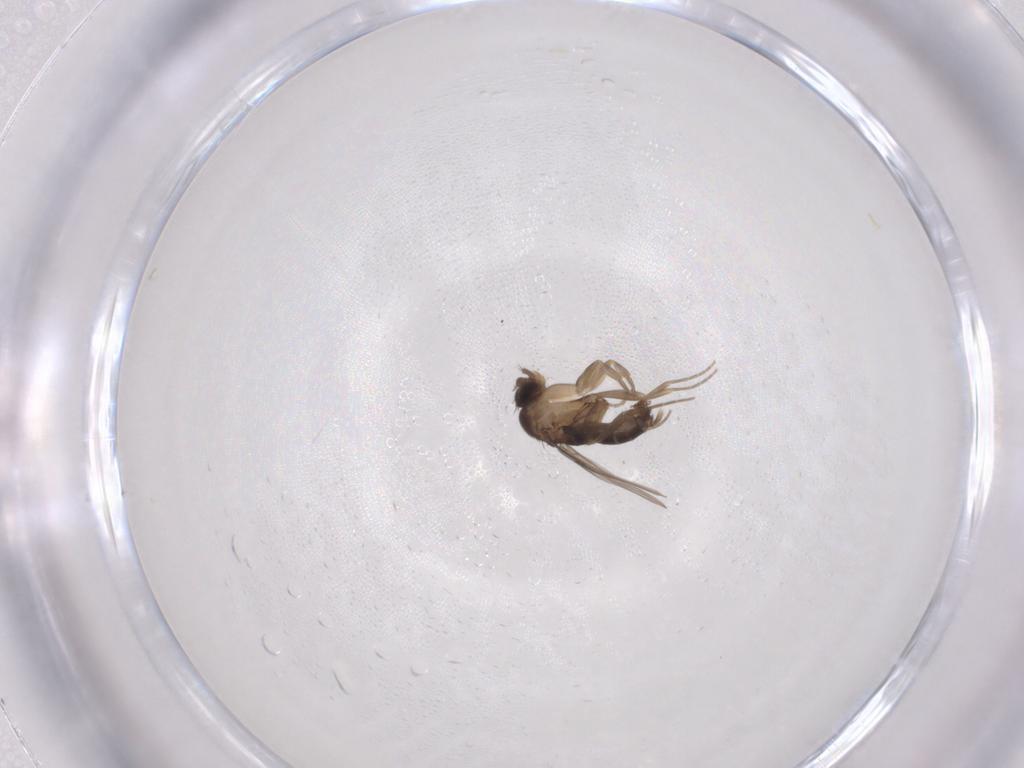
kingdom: Animalia
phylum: Arthropoda
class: Insecta
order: Diptera
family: Phoridae
